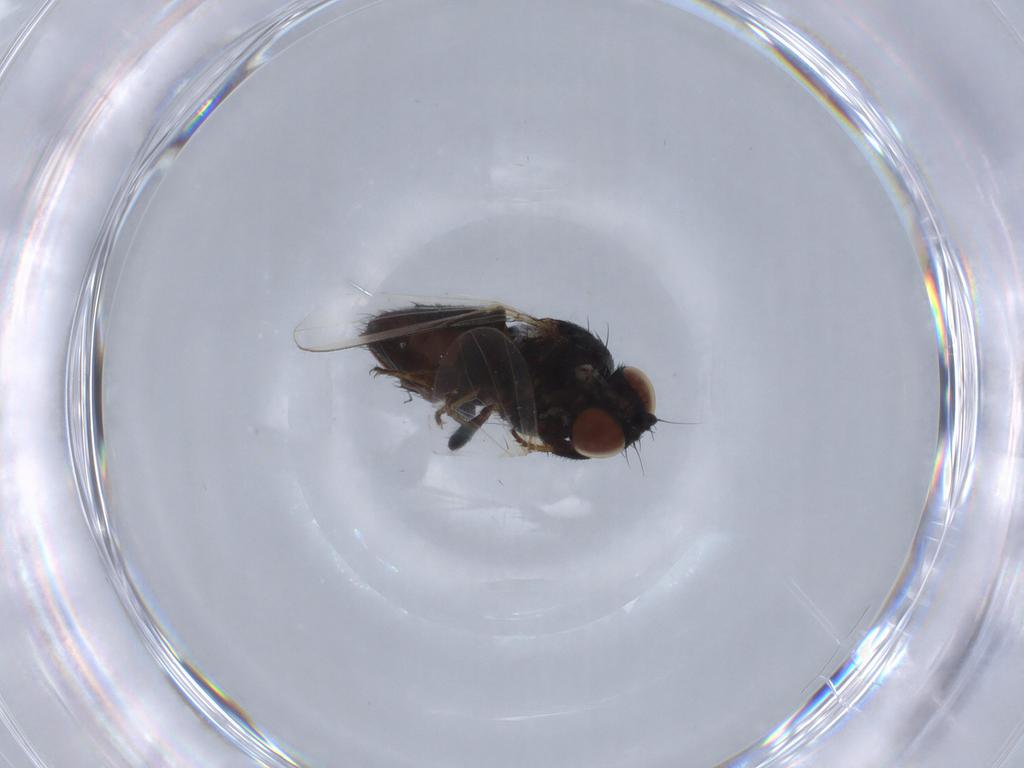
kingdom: Animalia
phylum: Arthropoda
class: Insecta
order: Diptera
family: Milichiidae
